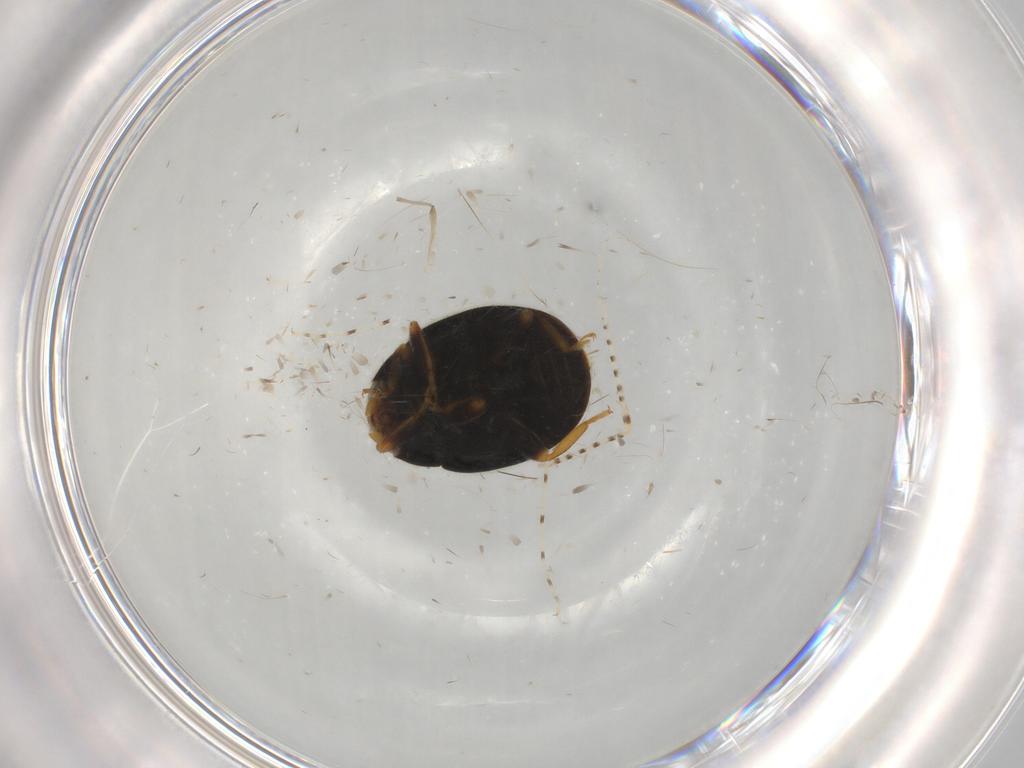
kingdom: Animalia
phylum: Arthropoda
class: Insecta
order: Coleoptera
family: Coccinellidae
